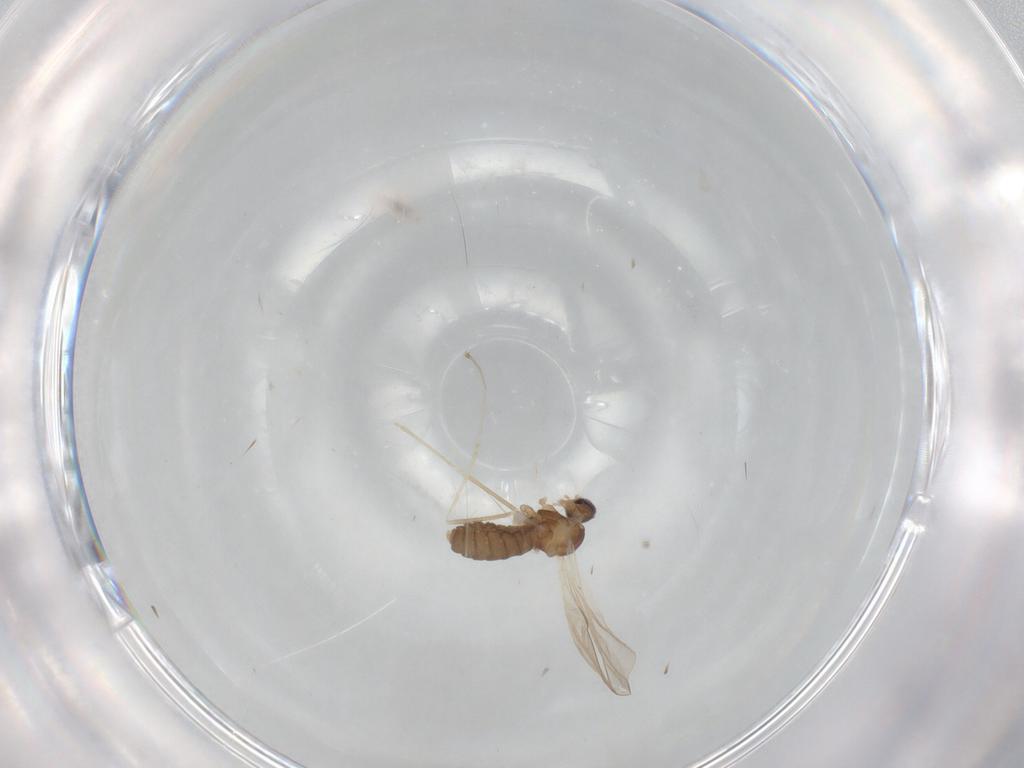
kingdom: Animalia
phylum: Arthropoda
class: Insecta
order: Diptera
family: Cecidomyiidae
